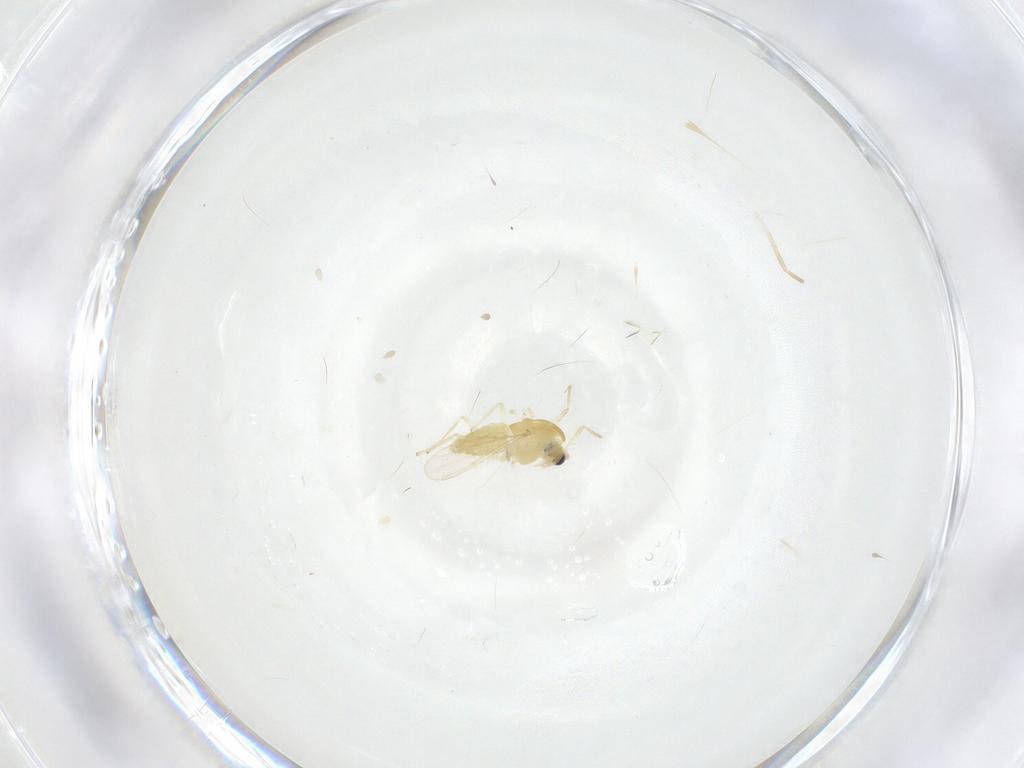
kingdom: Animalia
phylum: Arthropoda
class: Insecta
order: Diptera
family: Chironomidae
